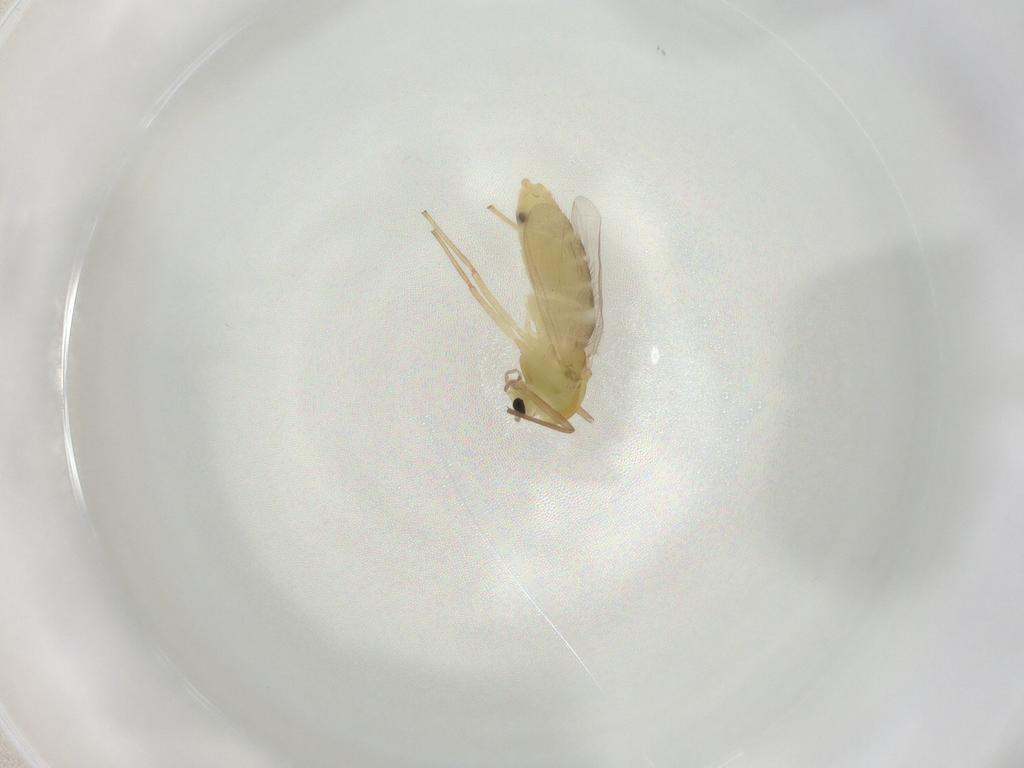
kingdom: Animalia
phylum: Arthropoda
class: Insecta
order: Diptera
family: Chironomidae
